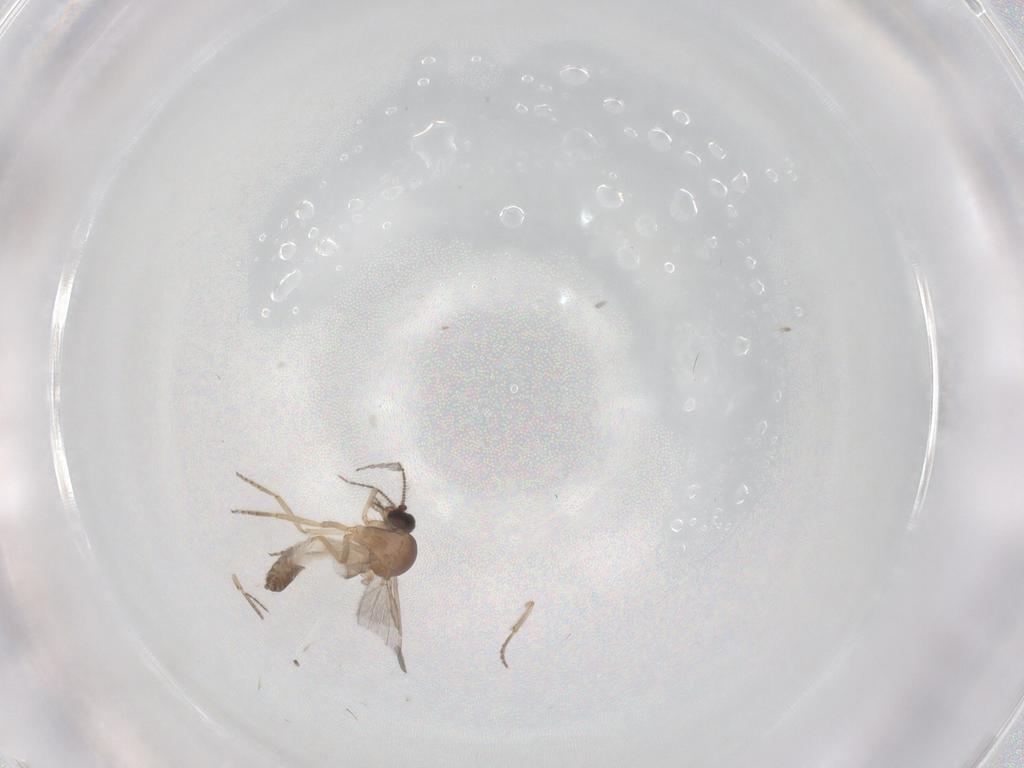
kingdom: Animalia
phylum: Arthropoda
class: Insecta
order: Diptera
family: Ceratopogonidae
